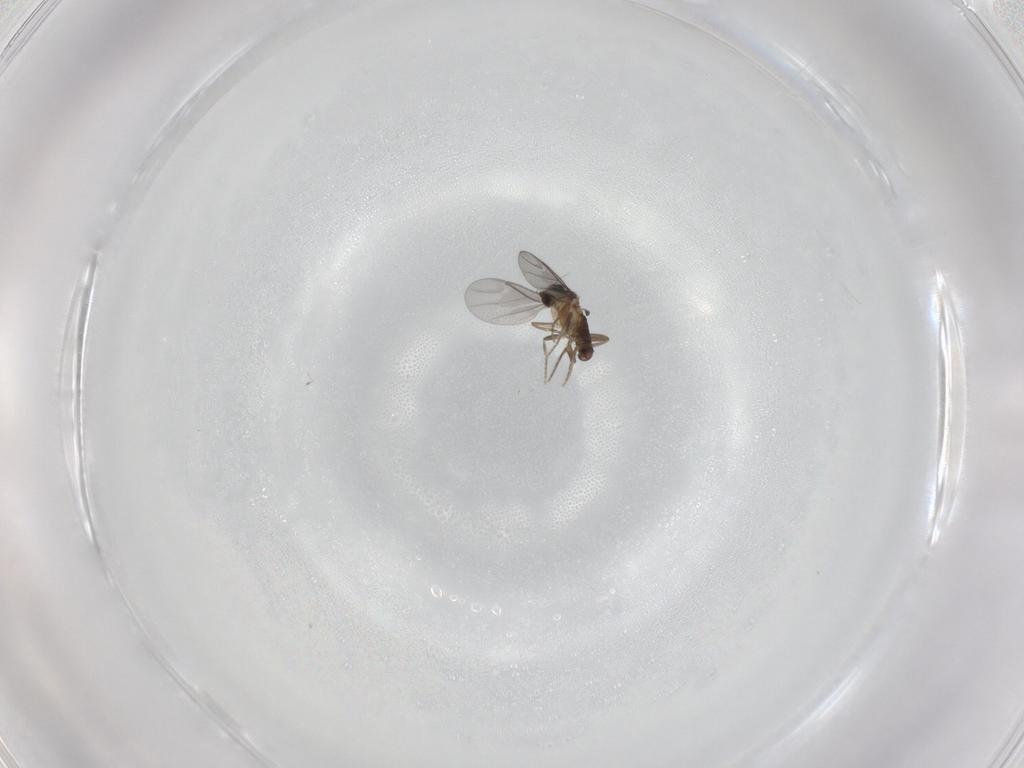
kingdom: Animalia
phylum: Arthropoda
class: Insecta
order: Diptera
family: Cecidomyiidae
